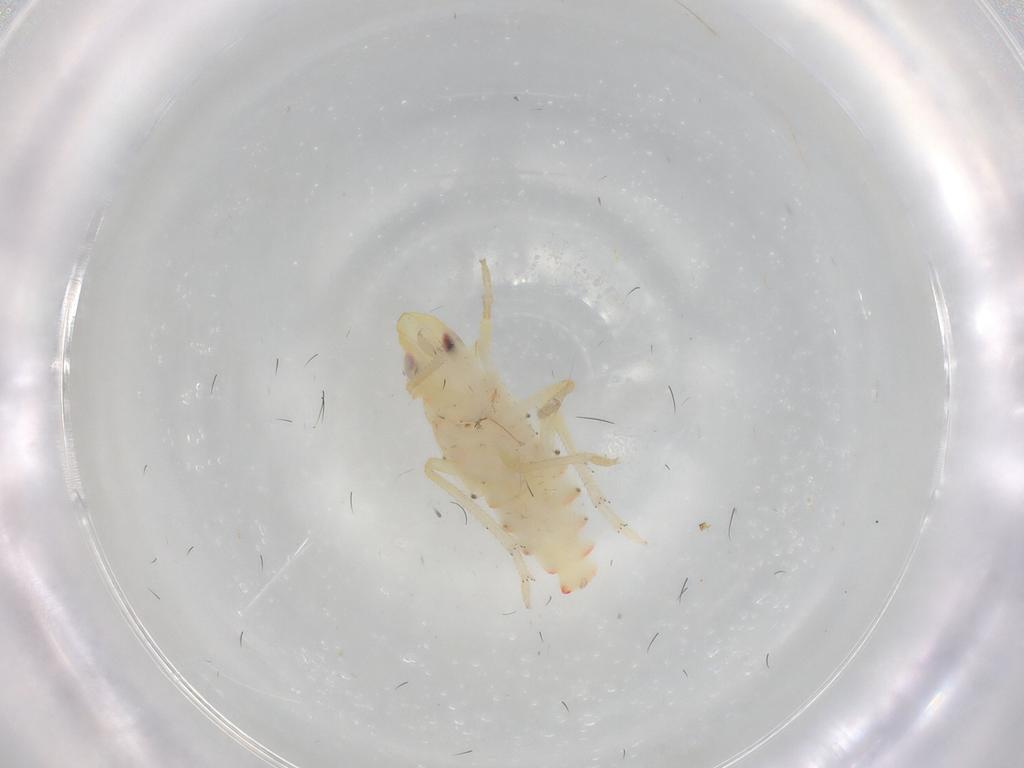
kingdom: Animalia
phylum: Arthropoda
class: Insecta
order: Hemiptera
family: Tropiduchidae
